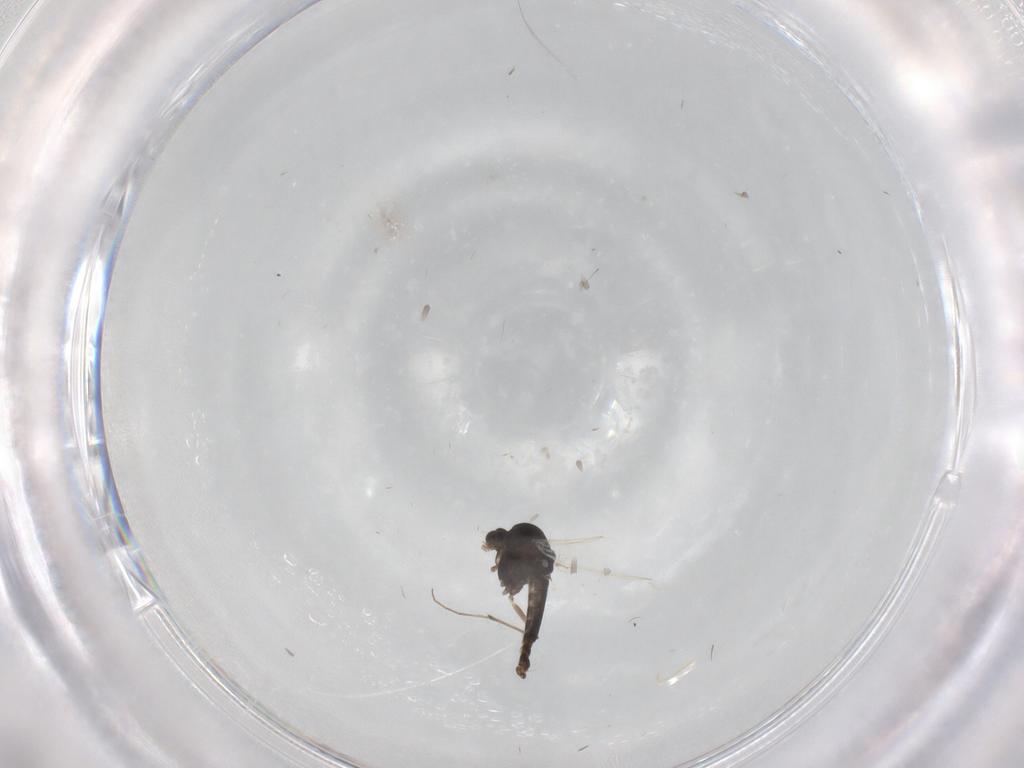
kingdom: Animalia
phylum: Arthropoda
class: Insecta
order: Diptera
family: Chironomidae
